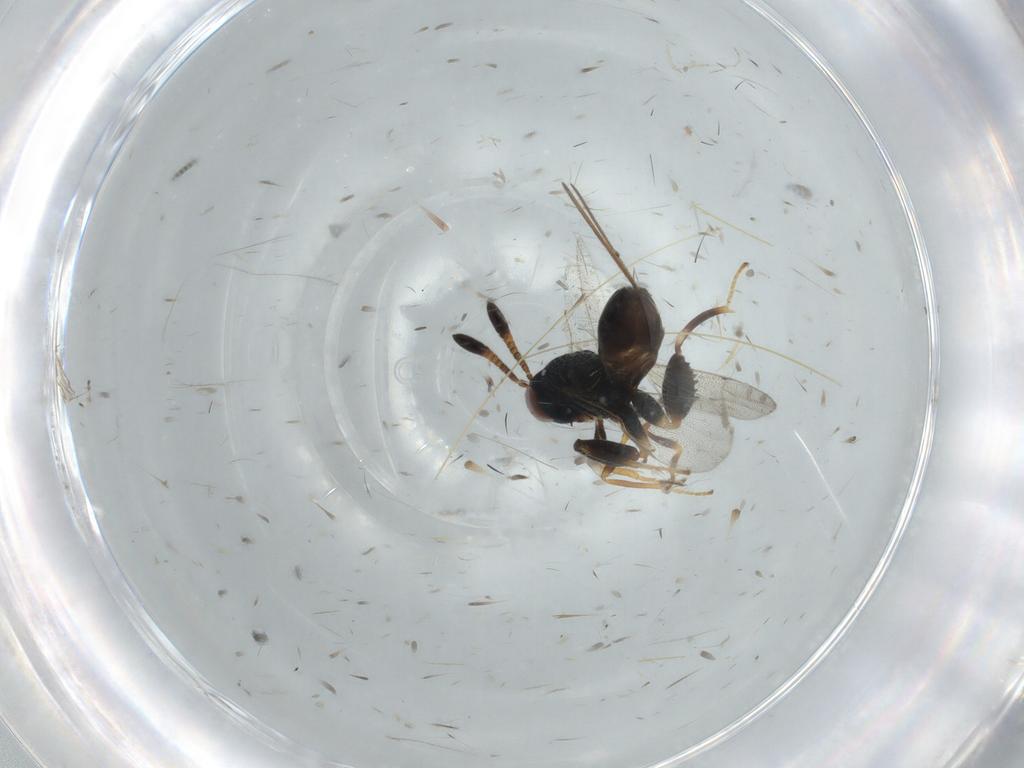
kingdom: Animalia
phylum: Arthropoda
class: Insecta
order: Hymenoptera
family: Torymidae
